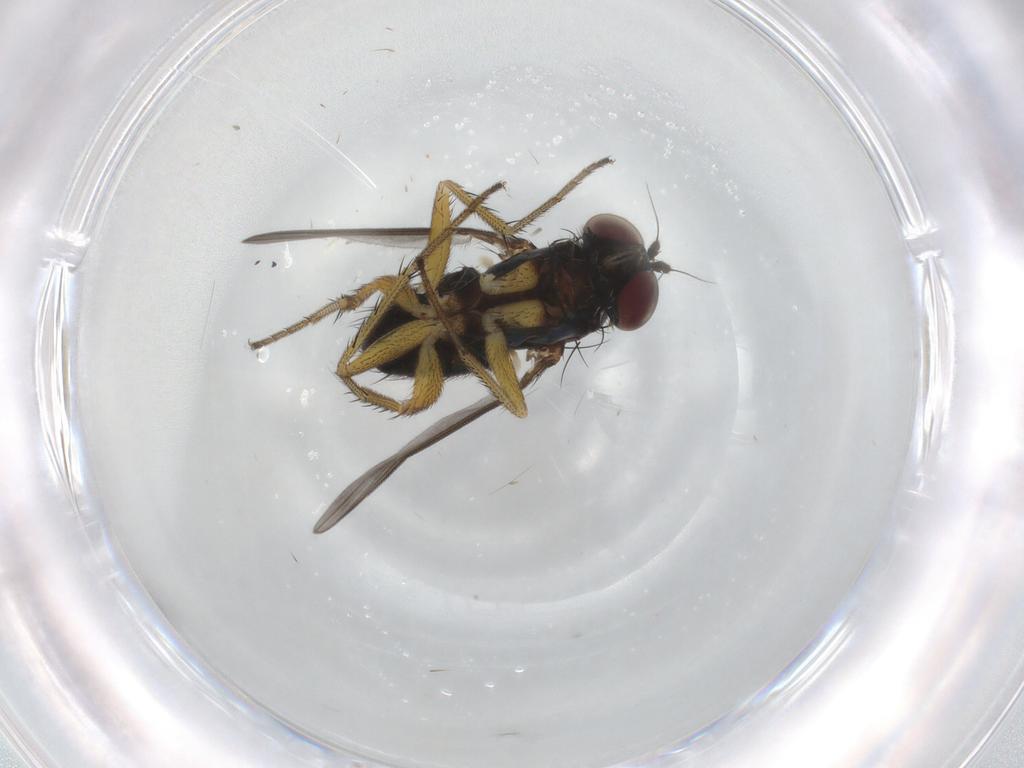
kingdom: Animalia
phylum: Arthropoda
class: Insecta
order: Diptera
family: Dolichopodidae
